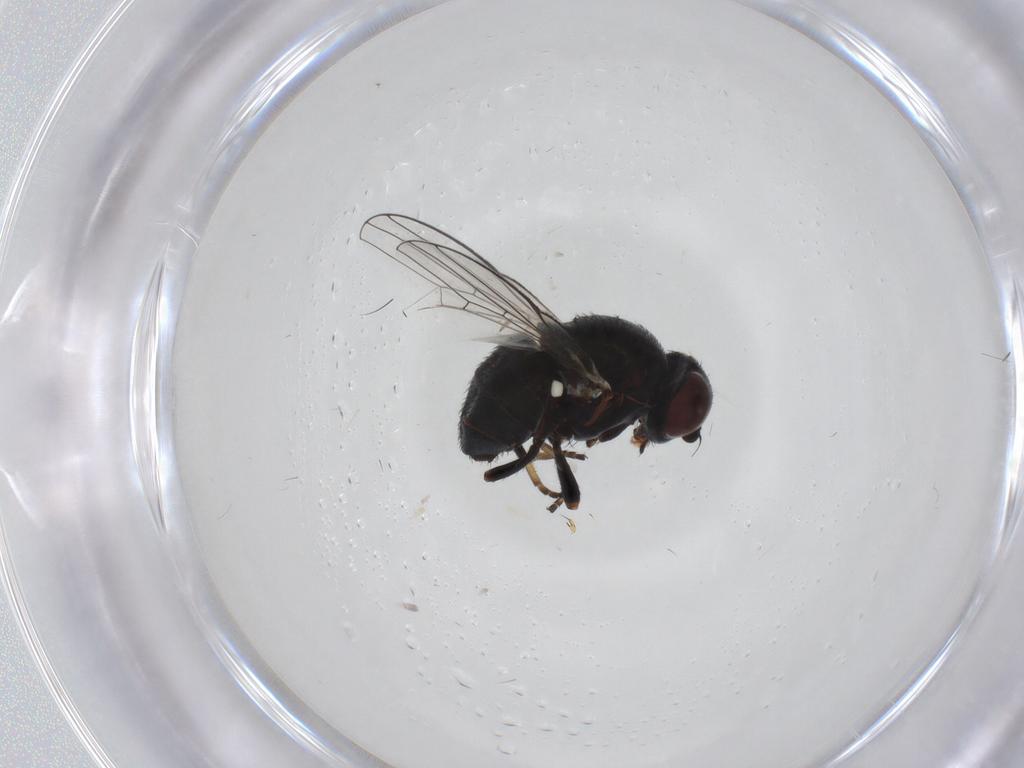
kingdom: Animalia
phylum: Arthropoda
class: Insecta
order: Diptera
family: Chamaemyiidae
